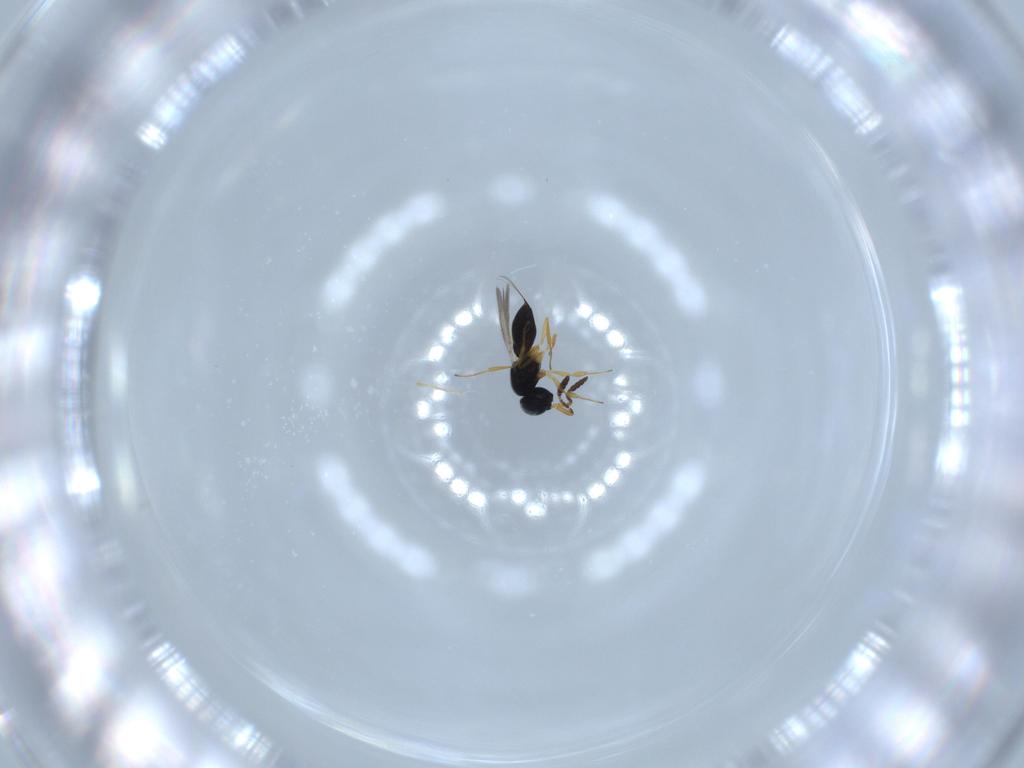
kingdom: Animalia
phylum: Arthropoda
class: Insecta
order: Hymenoptera
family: Scelionidae
